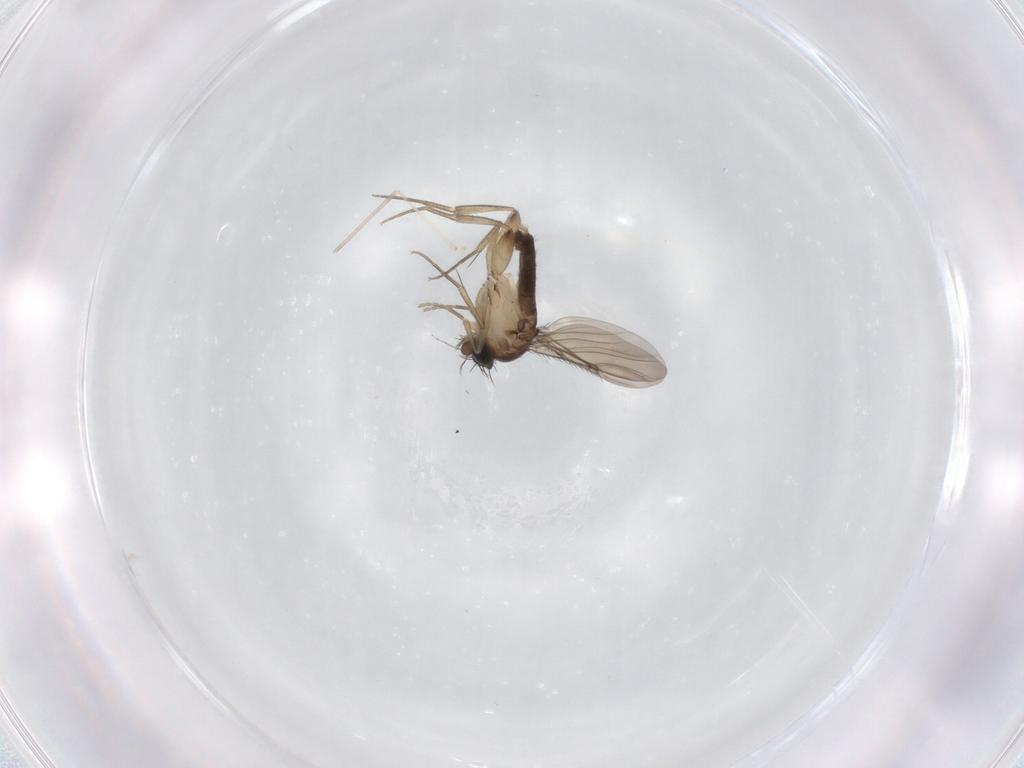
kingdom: Animalia
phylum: Arthropoda
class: Insecta
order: Diptera
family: Phoridae
